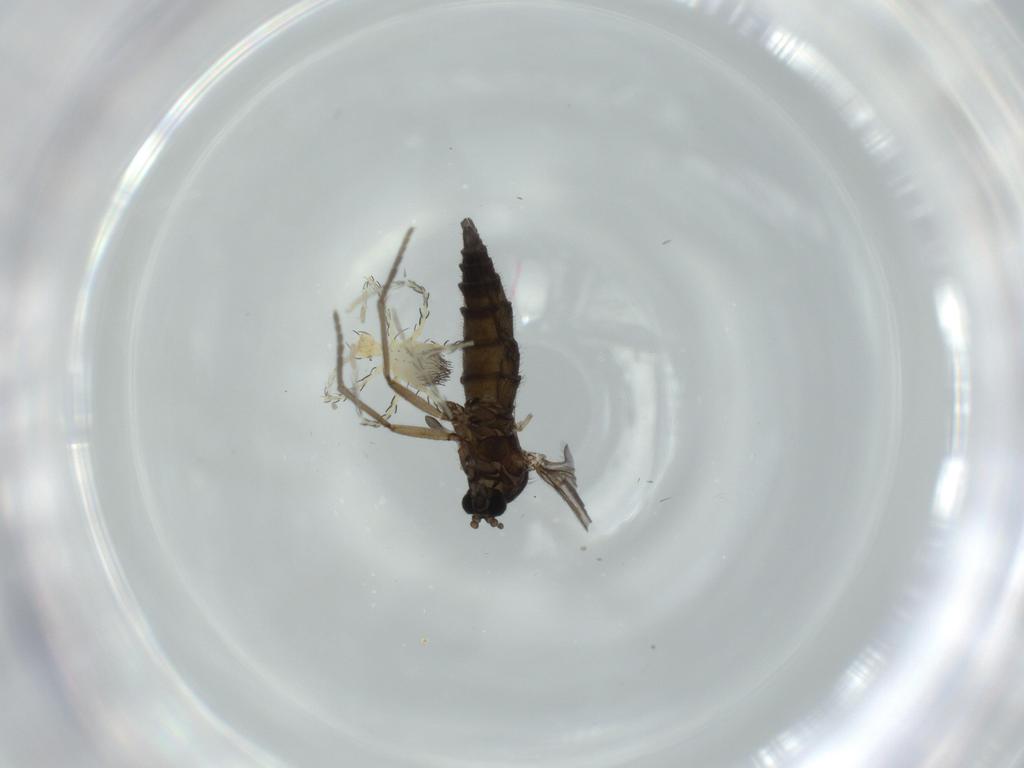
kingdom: Animalia
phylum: Arthropoda
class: Insecta
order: Diptera
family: Sciaridae
